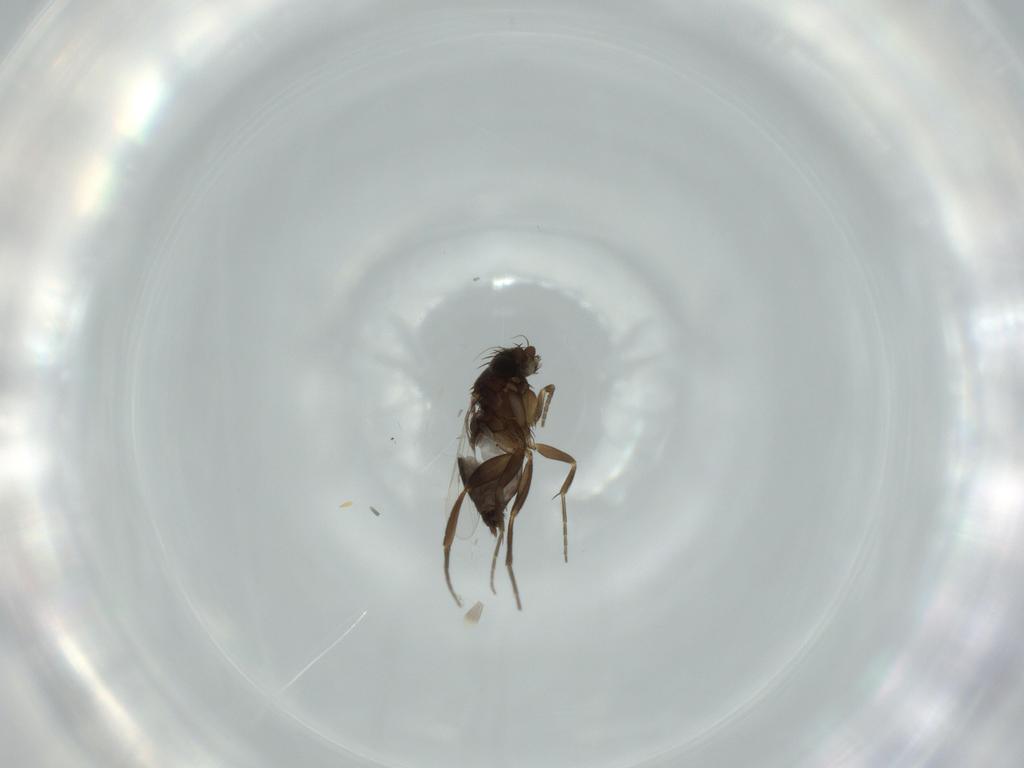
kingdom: Animalia
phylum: Arthropoda
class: Insecta
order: Diptera
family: Phoridae
